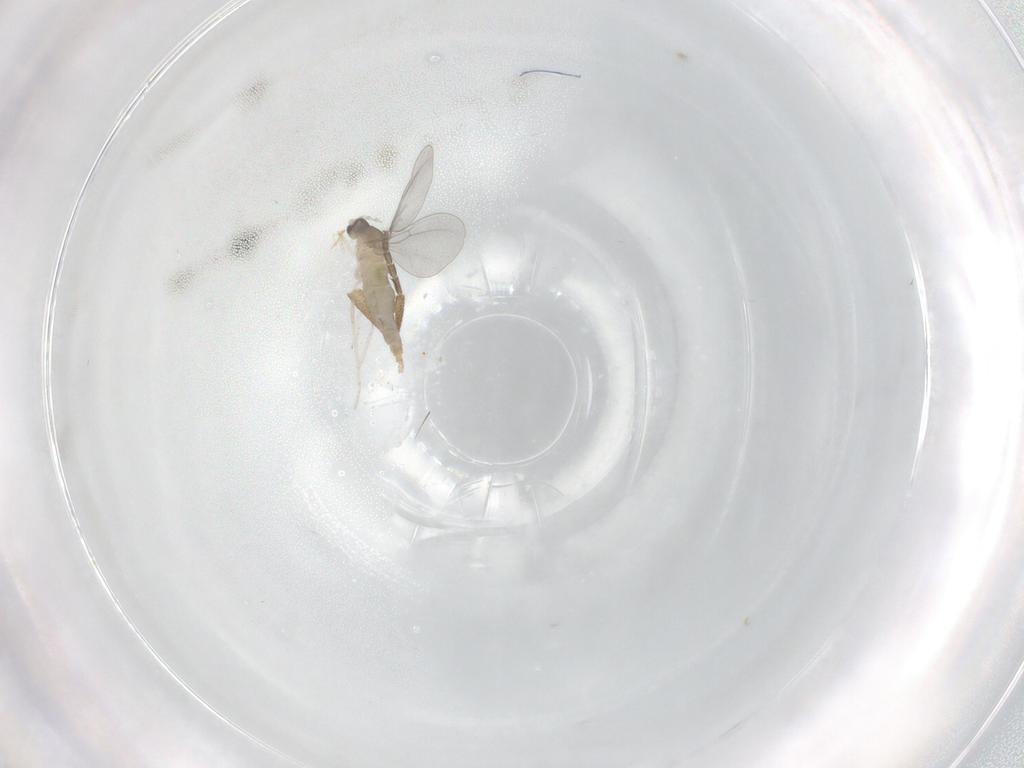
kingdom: Animalia
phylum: Arthropoda
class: Insecta
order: Diptera
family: Cecidomyiidae
